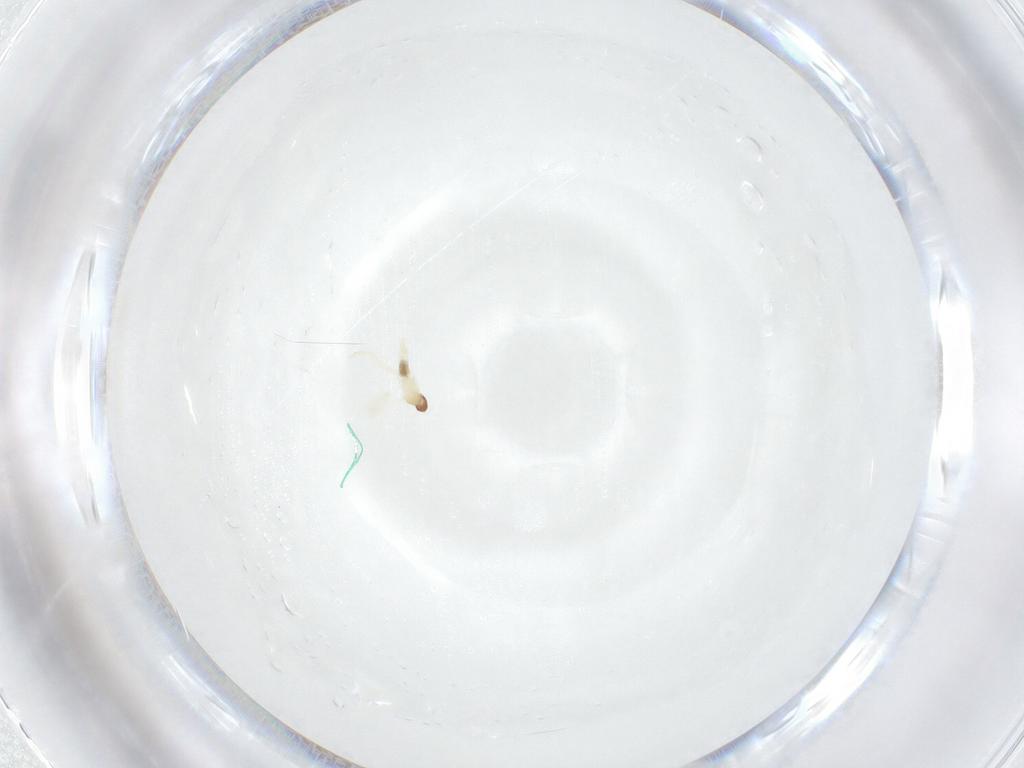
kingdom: Animalia
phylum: Arthropoda
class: Insecta
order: Diptera
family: Sciaridae
